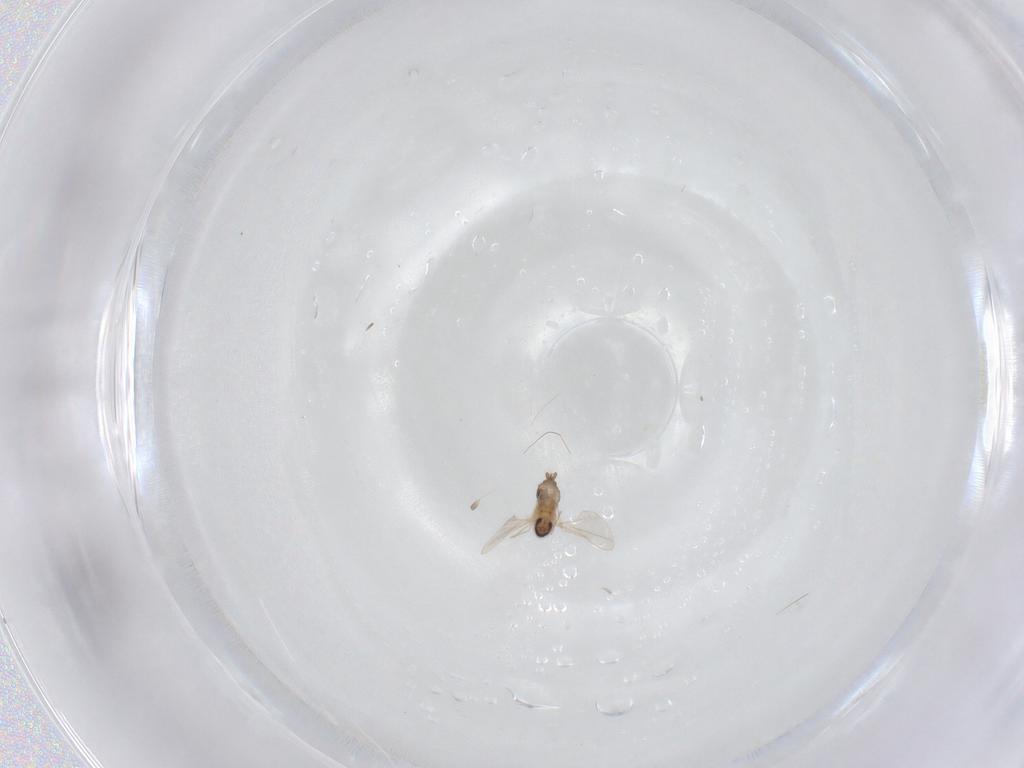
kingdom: Animalia
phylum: Arthropoda
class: Insecta
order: Diptera
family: Cecidomyiidae
